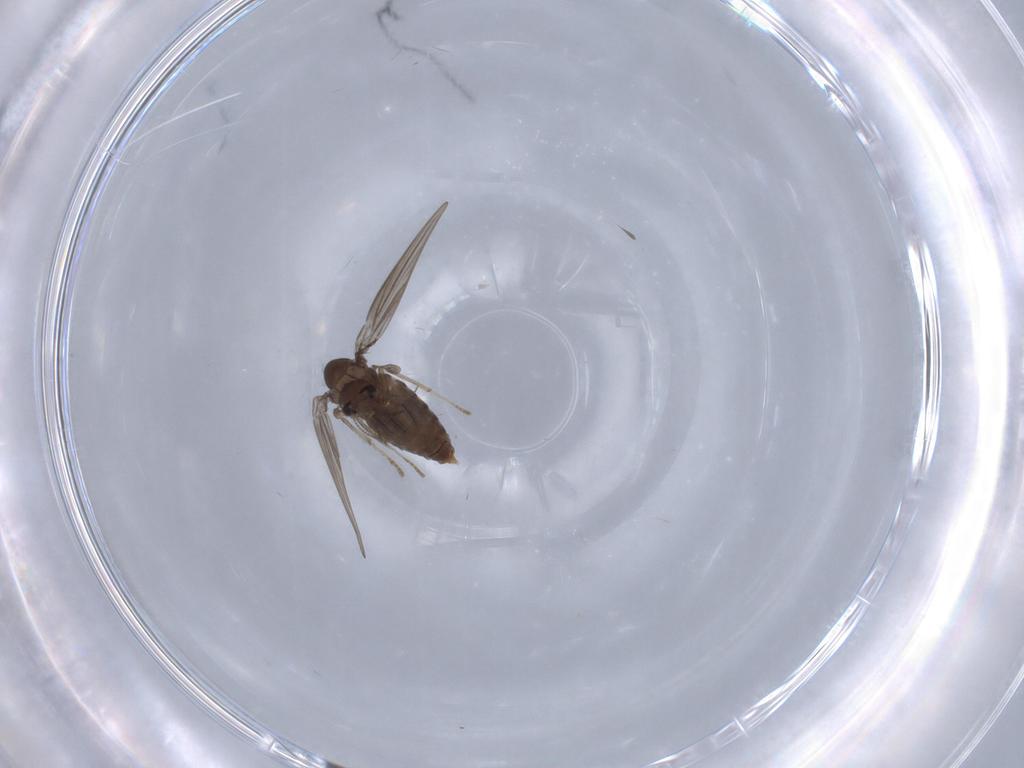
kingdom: Animalia
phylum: Arthropoda
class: Insecta
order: Diptera
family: Psychodidae
